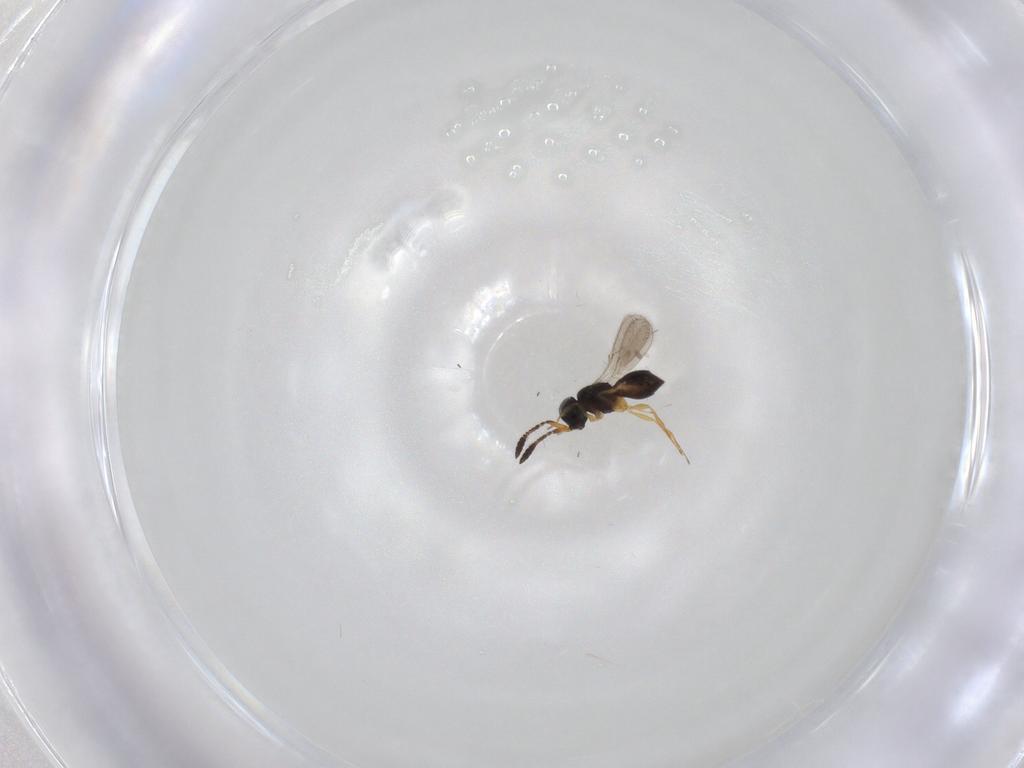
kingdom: Animalia
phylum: Arthropoda
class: Insecta
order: Hymenoptera
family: Scelionidae
